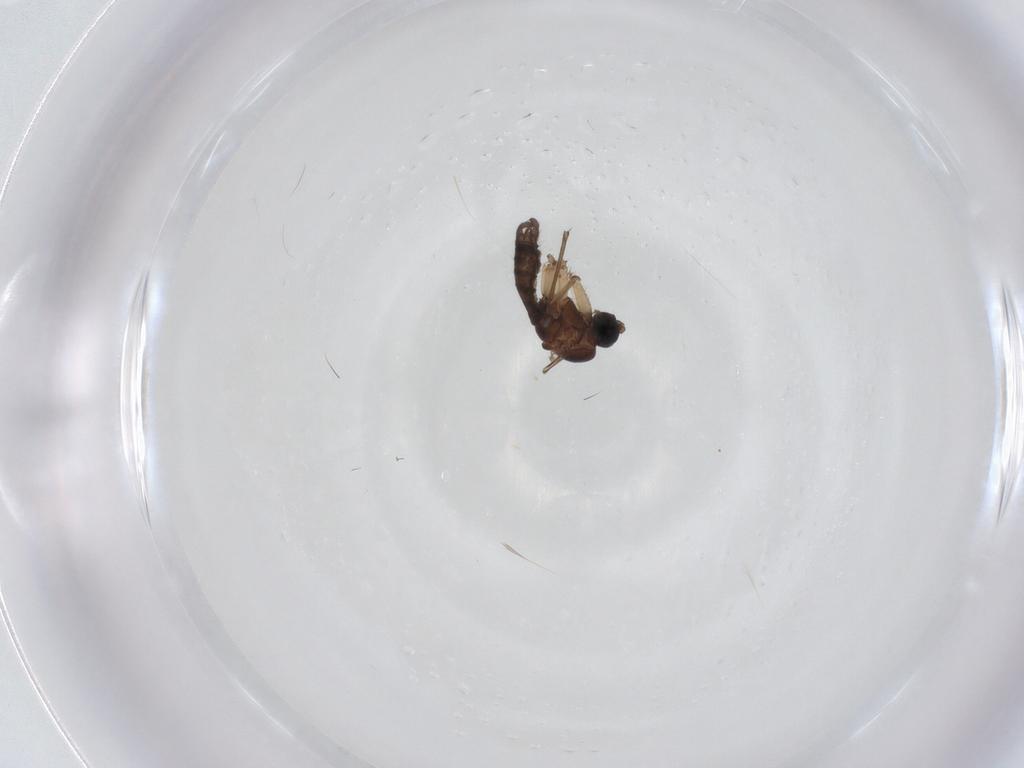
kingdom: Animalia
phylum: Arthropoda
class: Insecta
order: Diptera
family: Sciaridae
